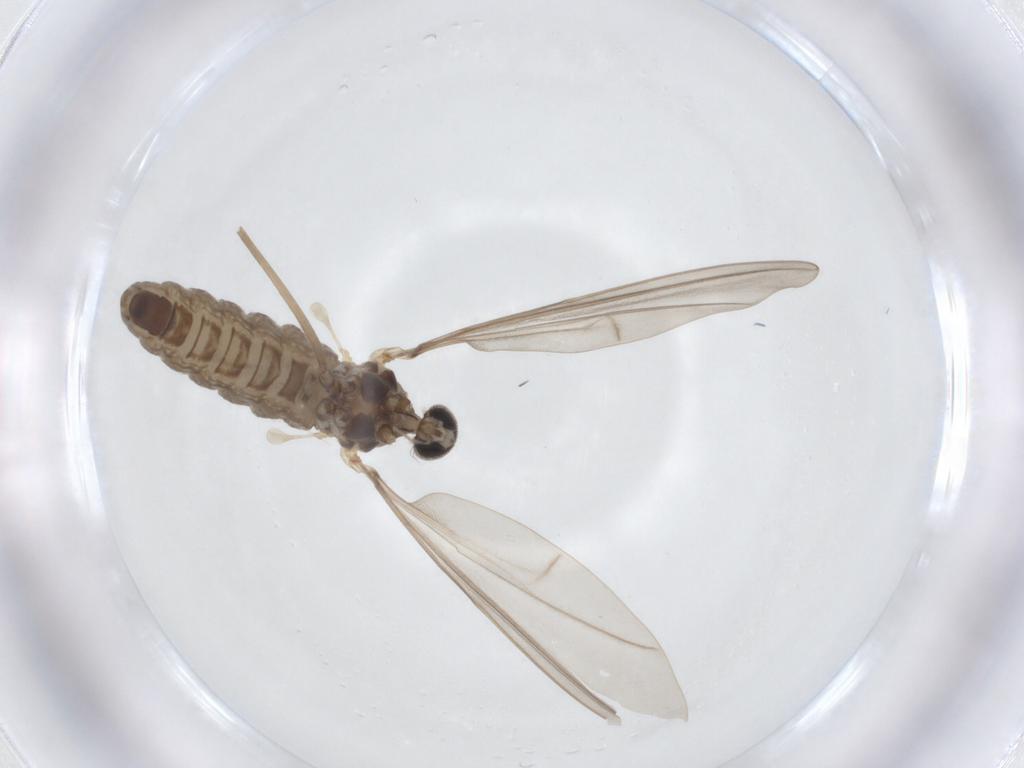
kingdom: Animalia
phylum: Arthropoda
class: Insecta
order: Diptera
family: Cecidomyiidae
